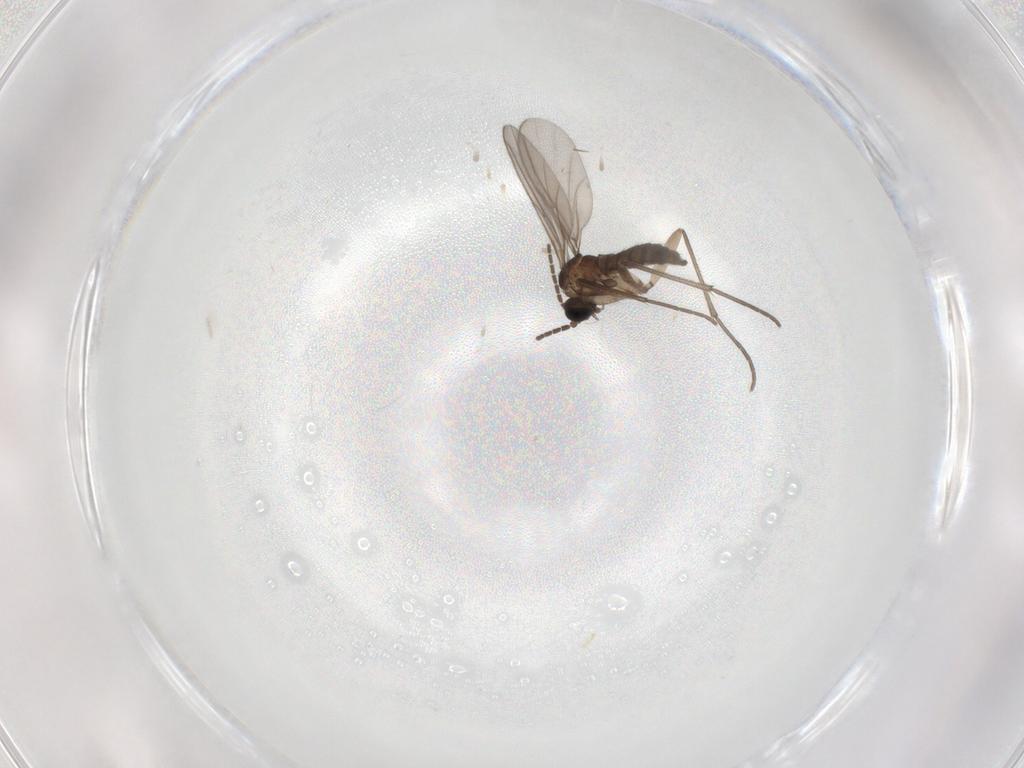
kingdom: Animalia
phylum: Arthropoda
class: Insecta
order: Diptera
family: Sciaridae
